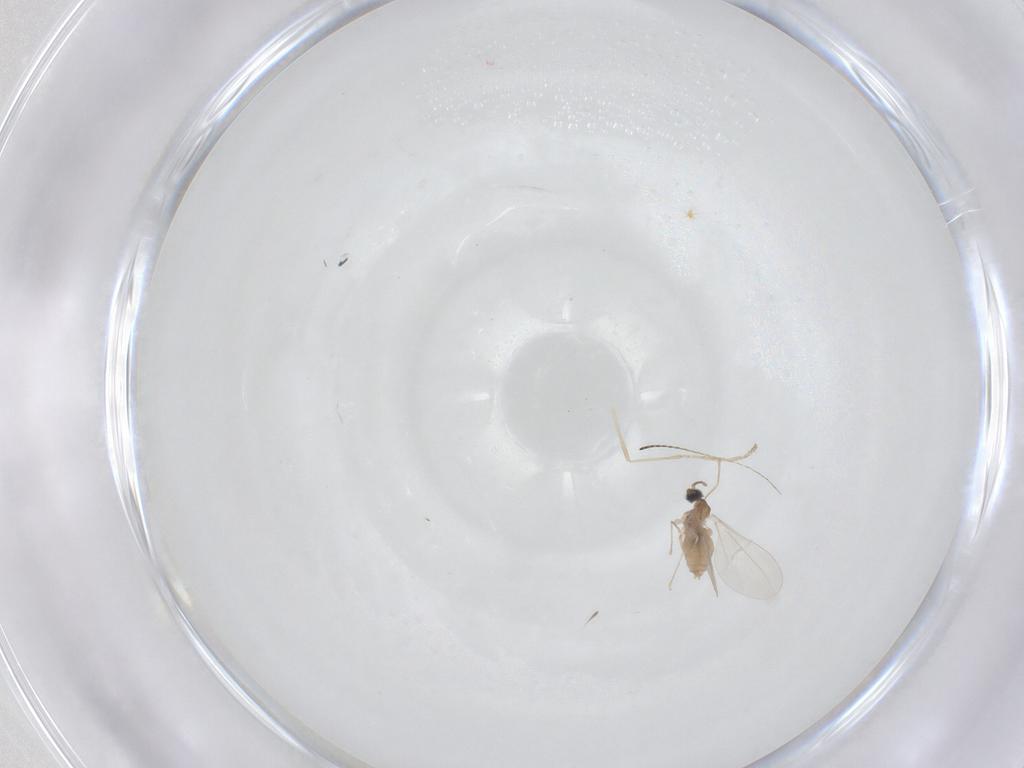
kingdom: Animalia
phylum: Arthropoda
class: Insecta
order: Diptera
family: Cecidomyiidae
